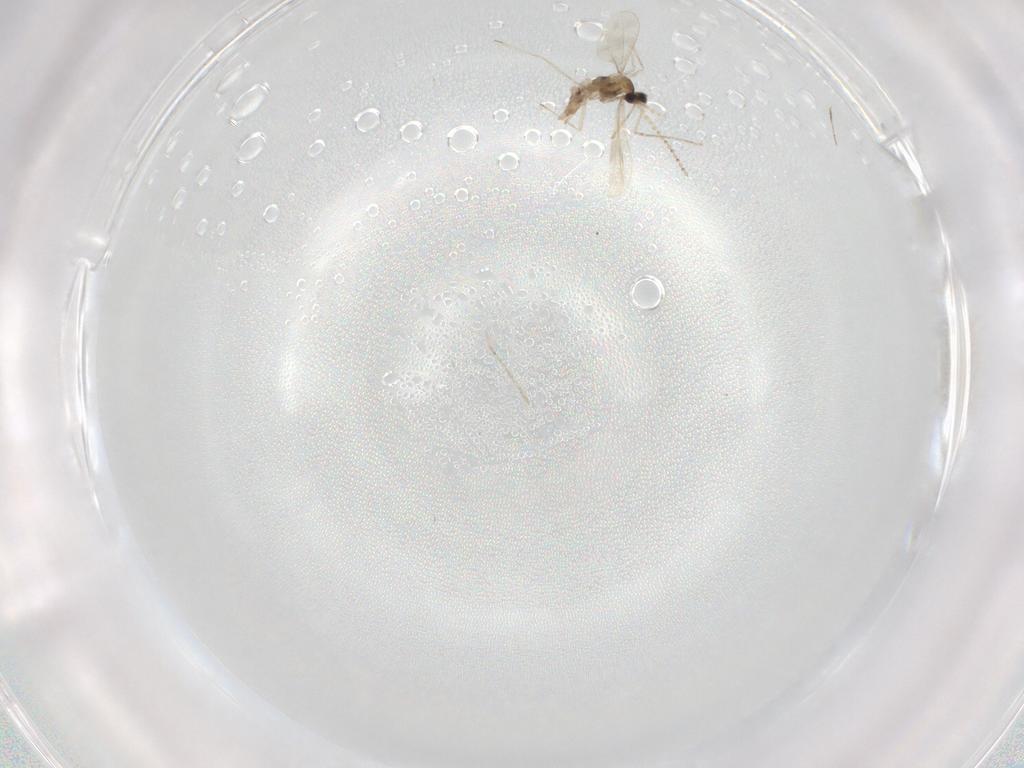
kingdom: Animalia
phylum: Arthropoda
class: Insecta
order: Diptera
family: Cecidomyiidae
